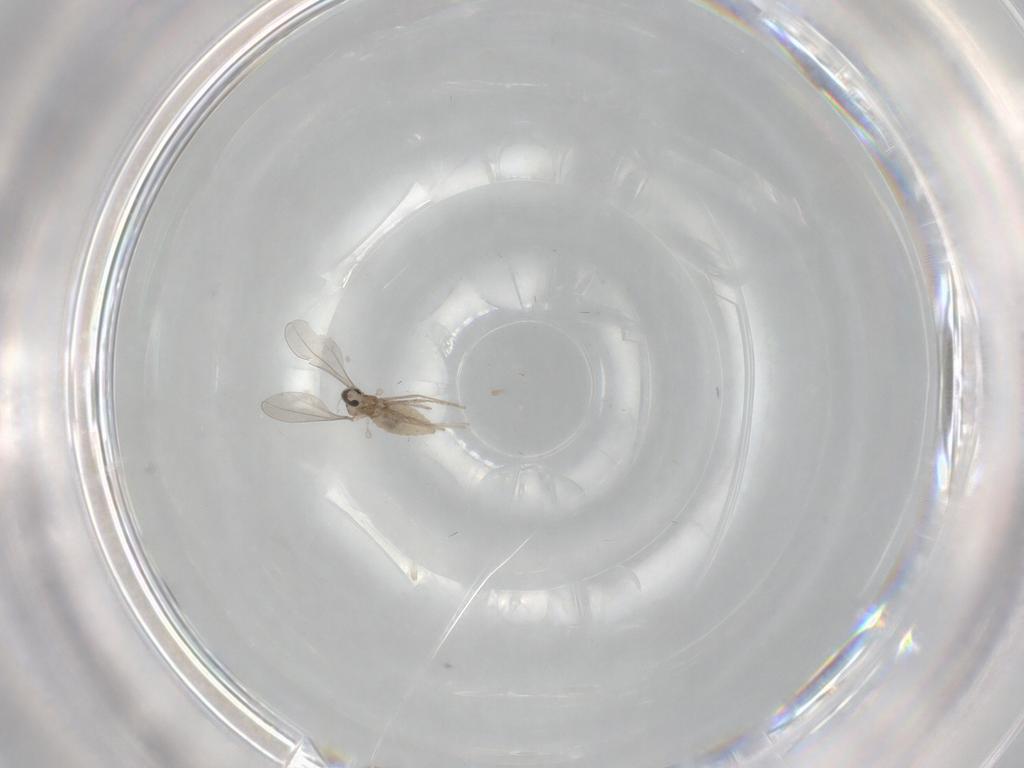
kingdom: Animalia
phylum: Arthropoda
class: Insecta
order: Diptera
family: Cecidomyiidae
